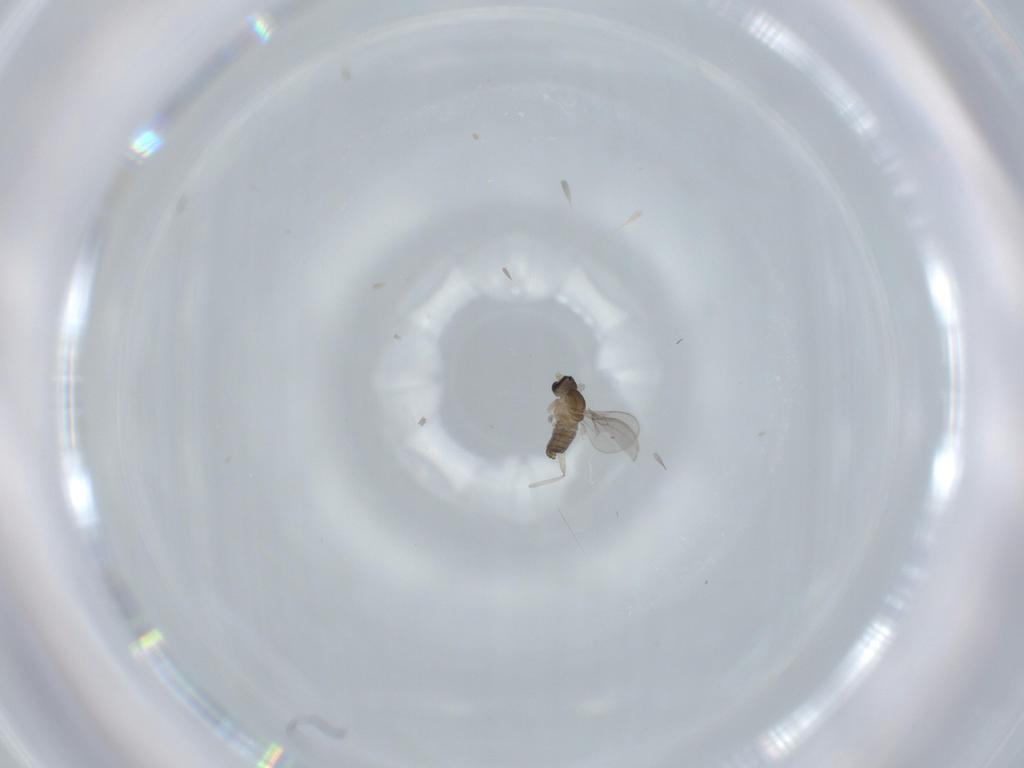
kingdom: Animalia
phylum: Arthropoda
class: Insecta
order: Diptera
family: Cecidomyiidae
